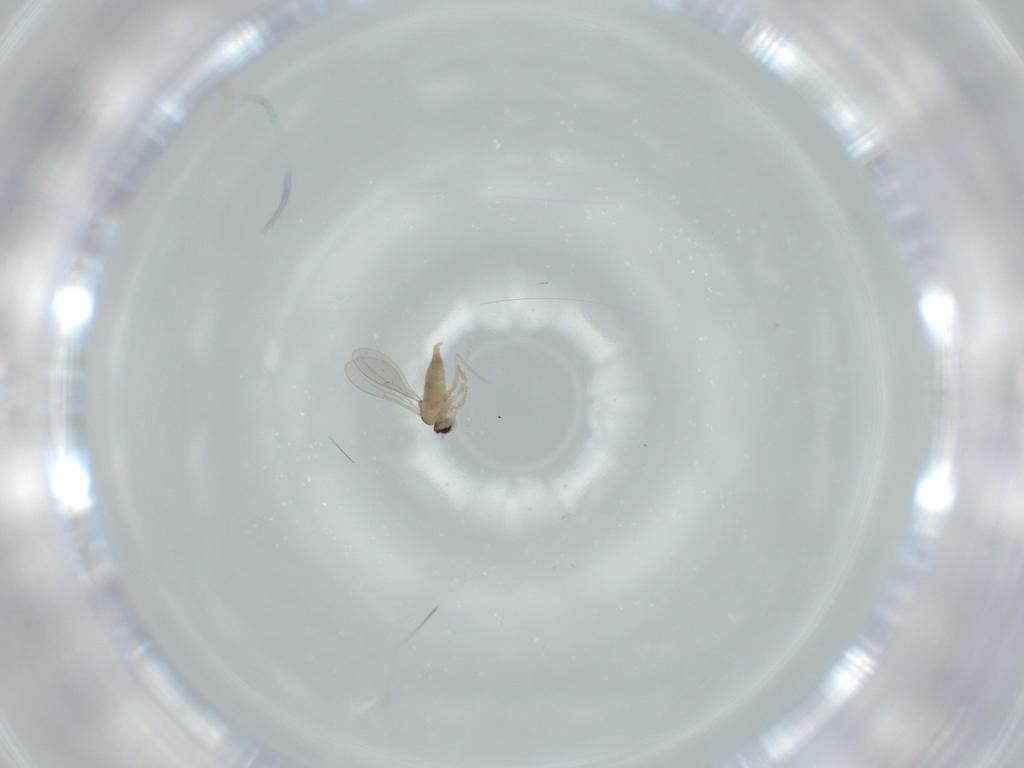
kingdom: Animalia
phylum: Arthropoda
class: Insecta
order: Diptera
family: Cecidomyiidae
